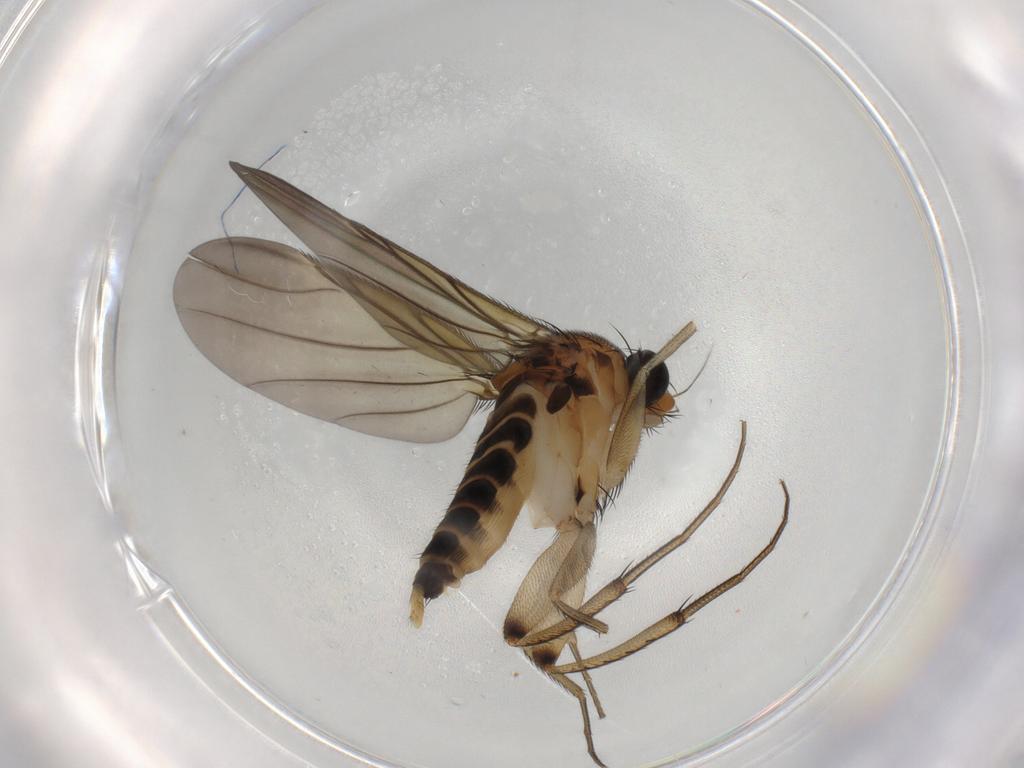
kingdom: Animalia
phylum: Arthropoda
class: Insecta
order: Diptera
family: Phoridae
